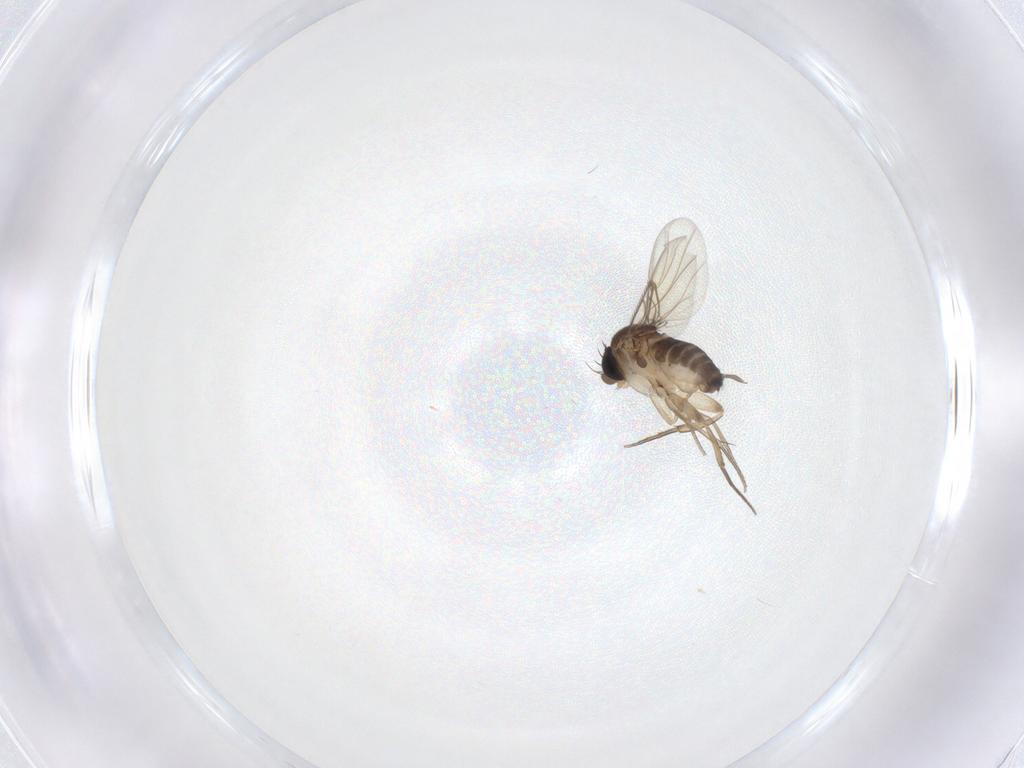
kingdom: Animalia
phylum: Arthropoda
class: Insecta
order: Diptera
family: Phoridae
